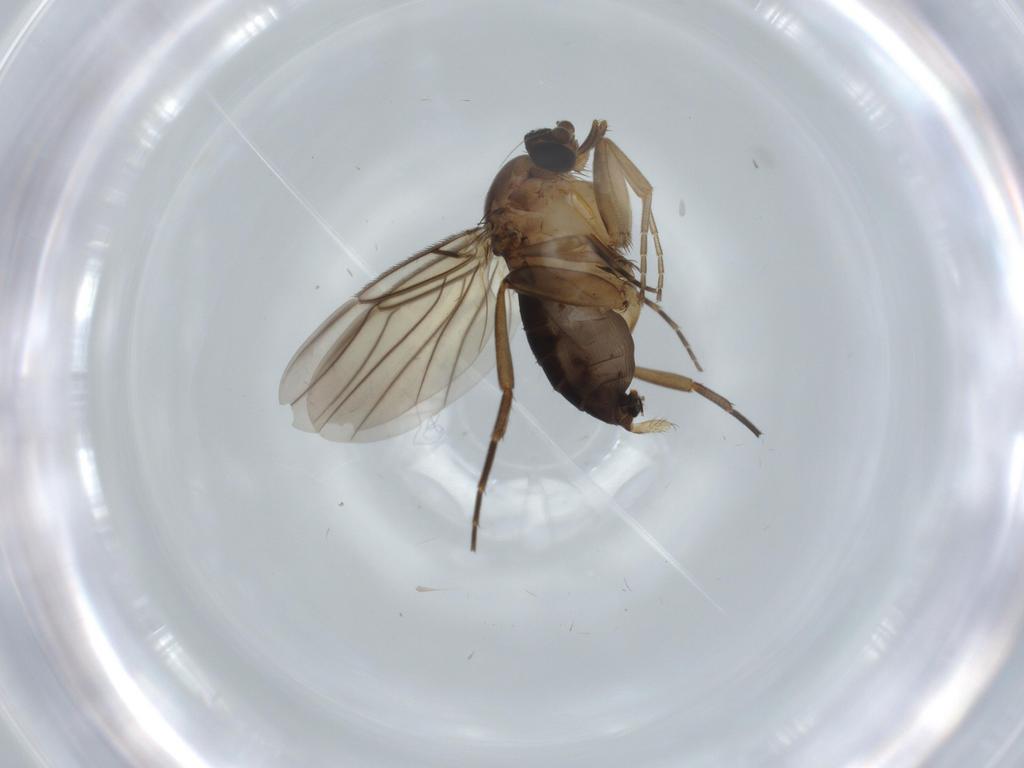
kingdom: Animalia
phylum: Arthropoda
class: Insecta
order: Diptera
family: Phoridae
